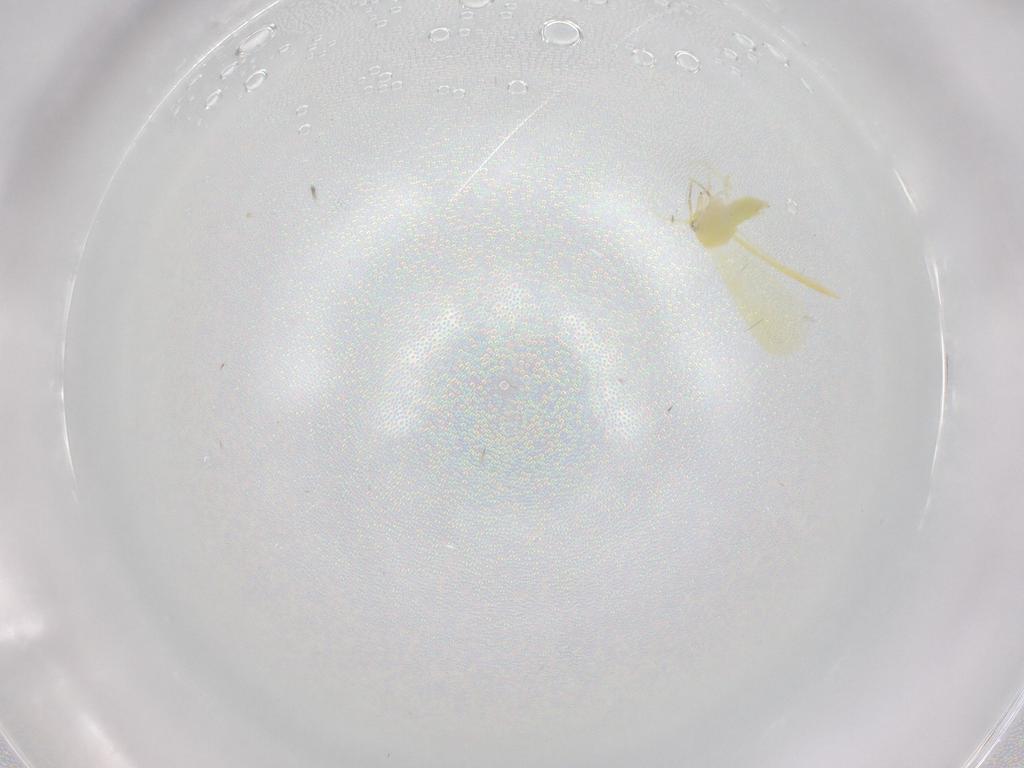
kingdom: Animalia
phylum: Arthropoda
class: Insecta
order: Hemiptera
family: Aleyrodidae
